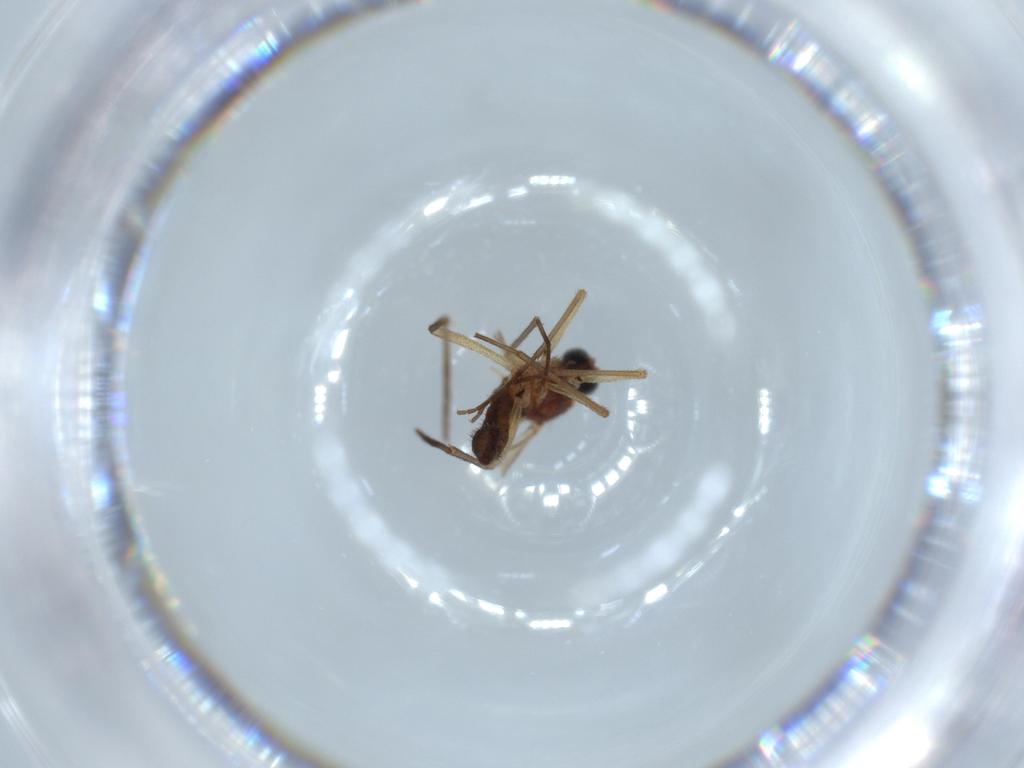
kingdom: Animalia
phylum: Arthropoda
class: Insecta
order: Diptera
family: Sciaridae
